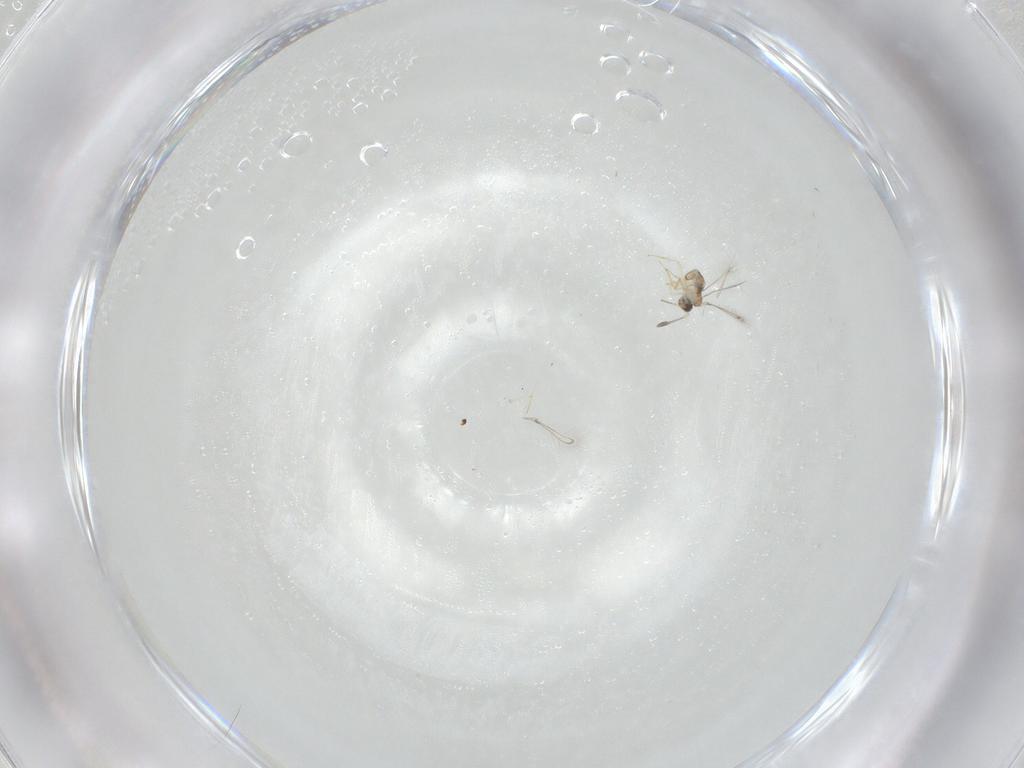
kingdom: Animalia
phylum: Arthropoda
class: Insecta
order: Hymenoptera
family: Mymaridae
